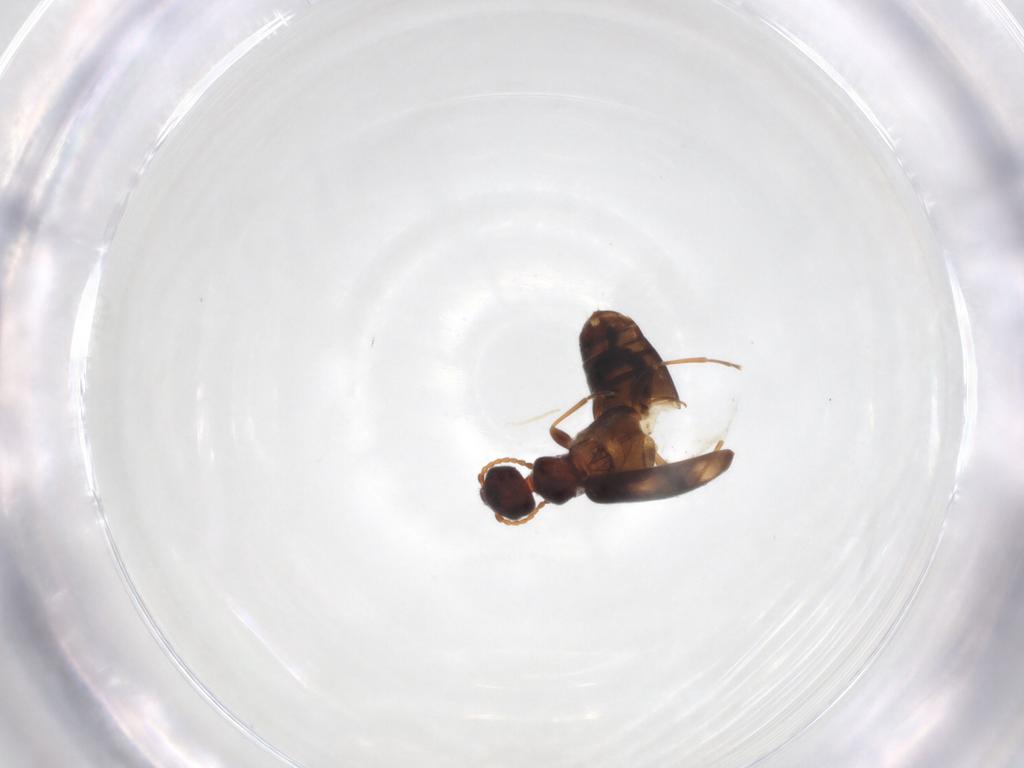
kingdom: Animalia
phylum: Arthropoda
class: Insecta
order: Coleoptera
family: Anthicidae
